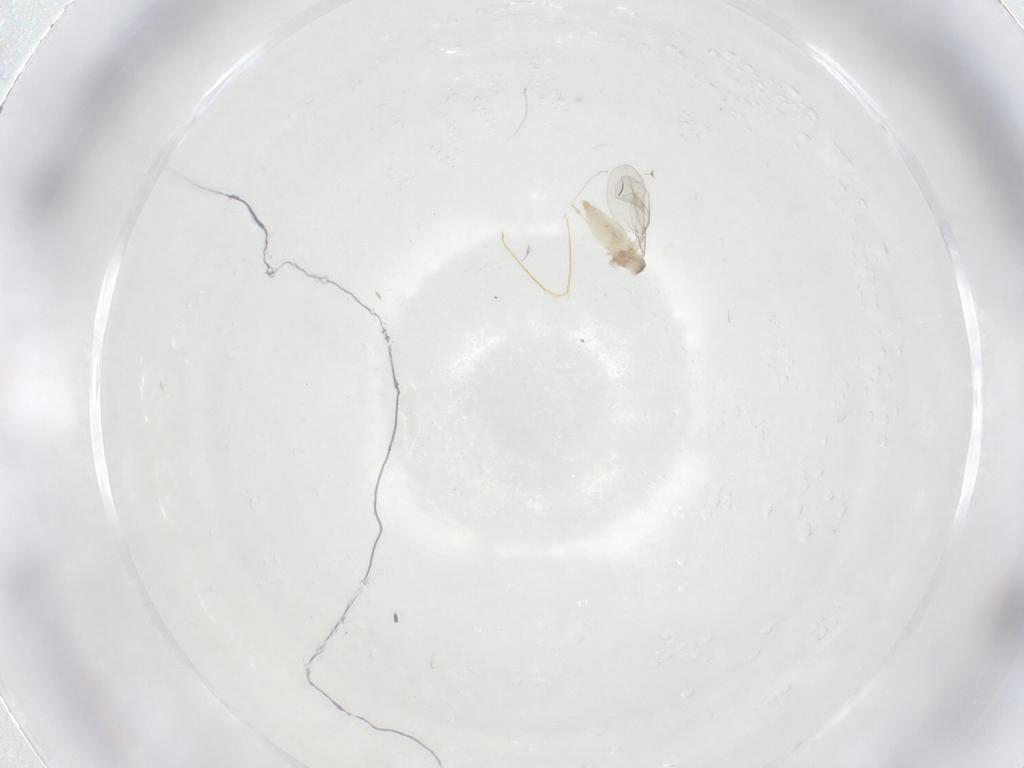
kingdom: Animalia
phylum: Arthropoda
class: Insecta
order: Diptera
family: Cecidomyiidae
